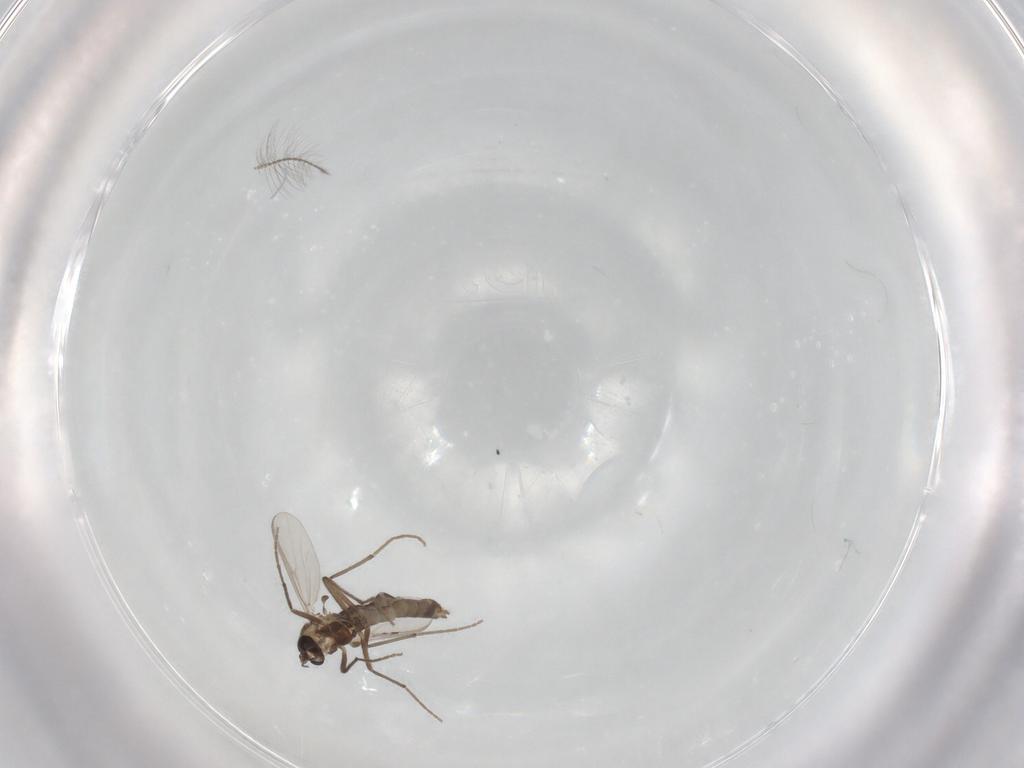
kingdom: Animalia
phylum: Arthropoda
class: Insecta
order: Diptera
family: Chironomidae
